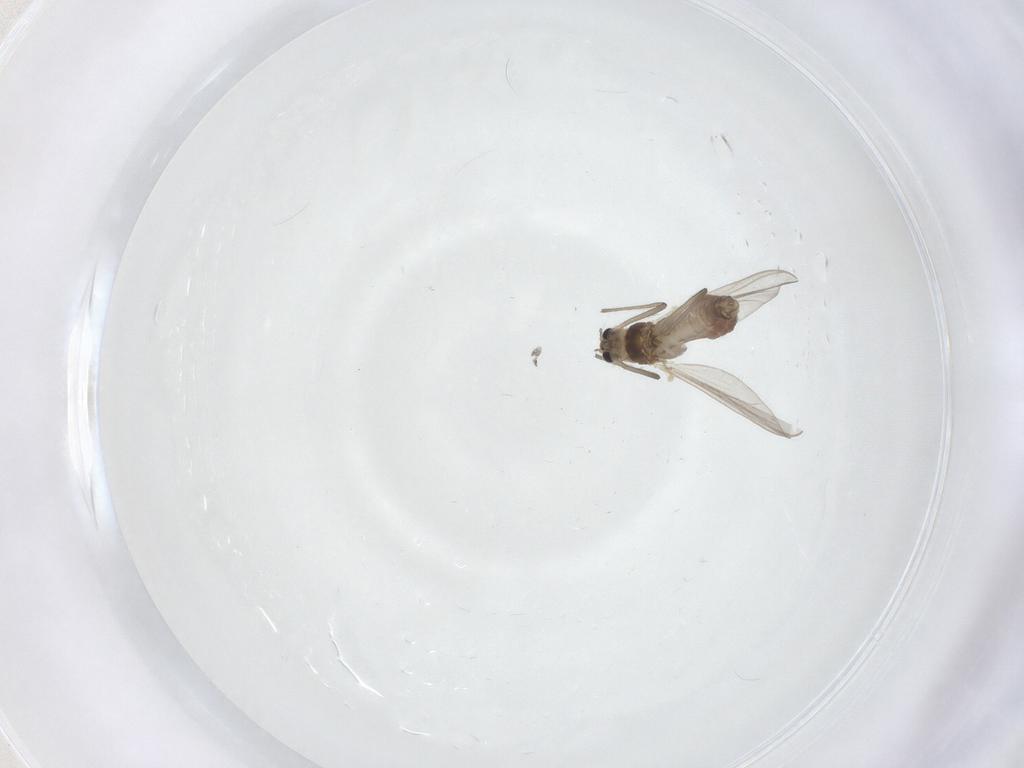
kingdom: Animalia
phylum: Arthropoda
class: Insecta
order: Diptera
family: Chironomidae
